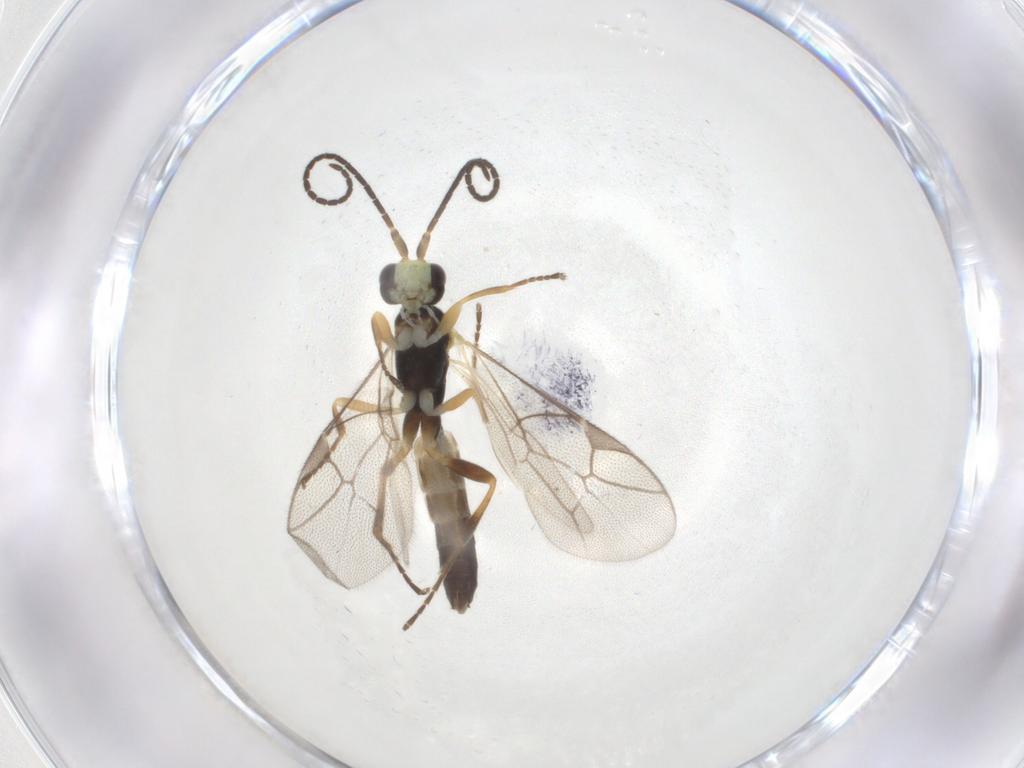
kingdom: Animalia
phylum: Arthropoda
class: Insecta
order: Hymenoptera
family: Ichneumonidae
